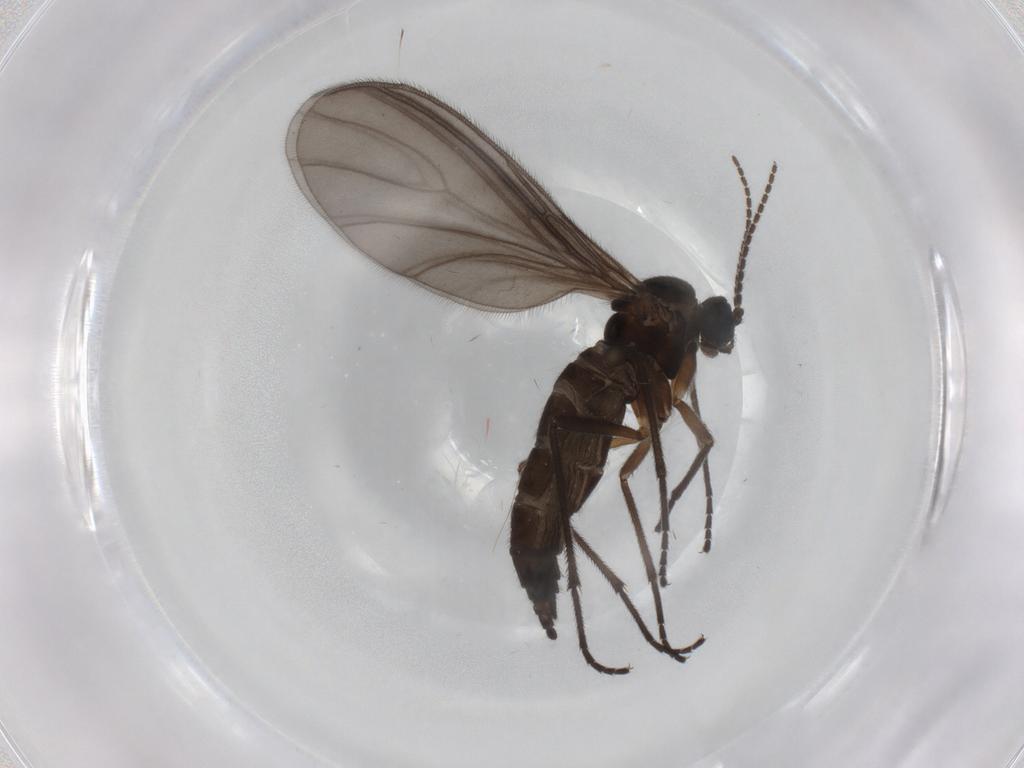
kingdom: Animalia
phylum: Arthropoda
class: Insecta
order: Diptera
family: Sciaridae
